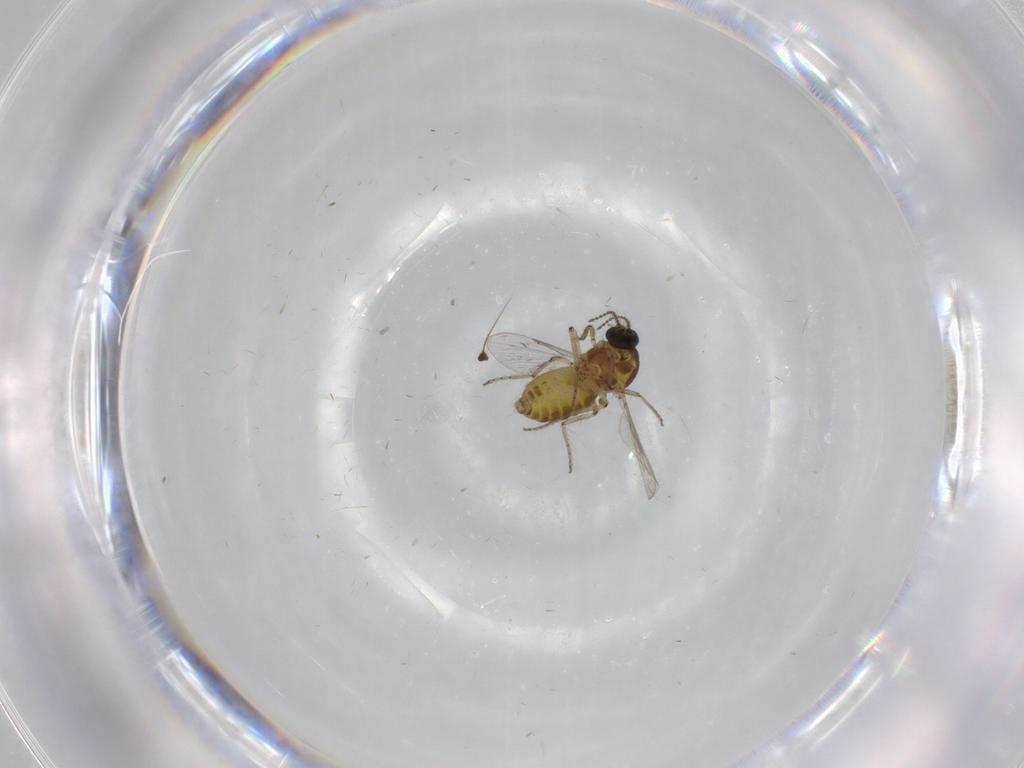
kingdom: Animalia
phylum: Arthropoda
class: Insecta
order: Diptera
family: Ceratopogonidae
